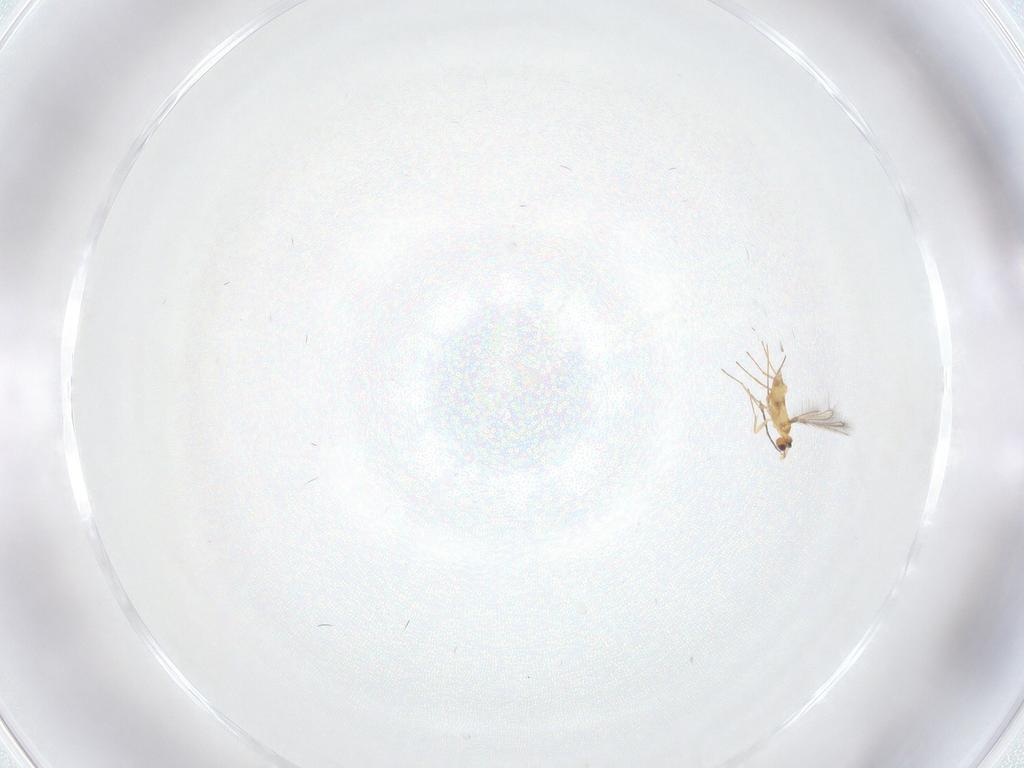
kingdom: Animalia
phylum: Arthropoda
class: Insecta
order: Hymenoptera
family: Mymaridae
